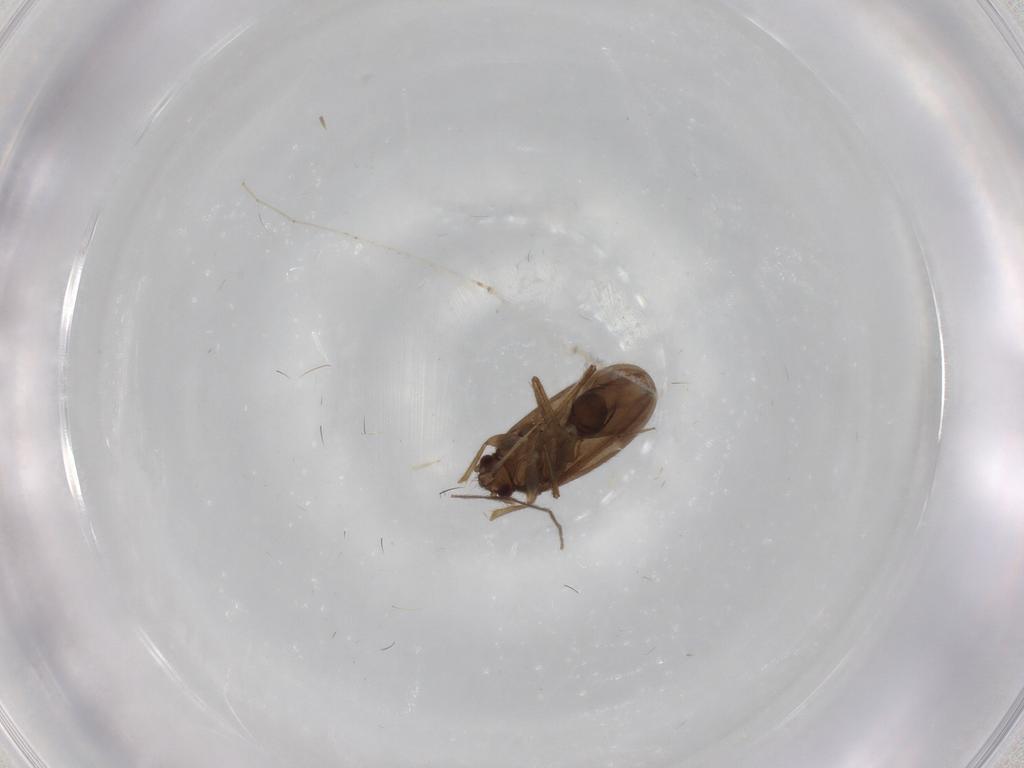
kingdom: Animalia
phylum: Arthropoda
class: Insecta
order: Hemiptera
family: Ceratocombidae
